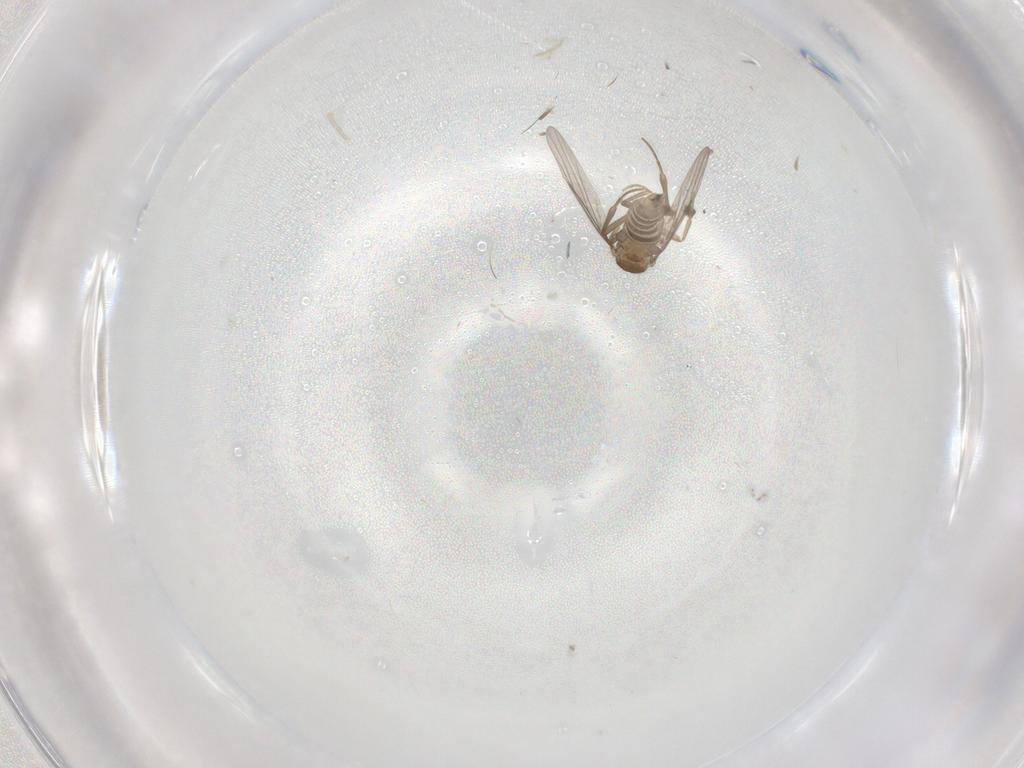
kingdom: Animalia
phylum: Arthropoda
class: Insecta
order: Diptera
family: Mycetophilidae
